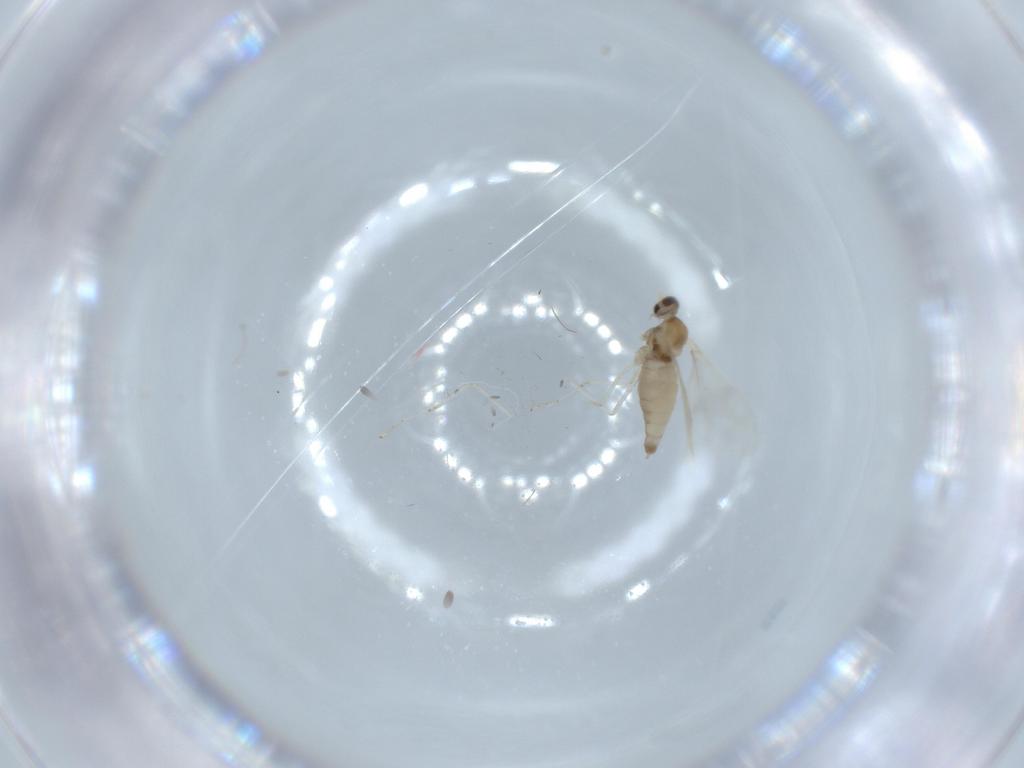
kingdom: Animalia
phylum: Arthropoda
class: Insecta
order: Diptera
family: Cecidomyiidae
